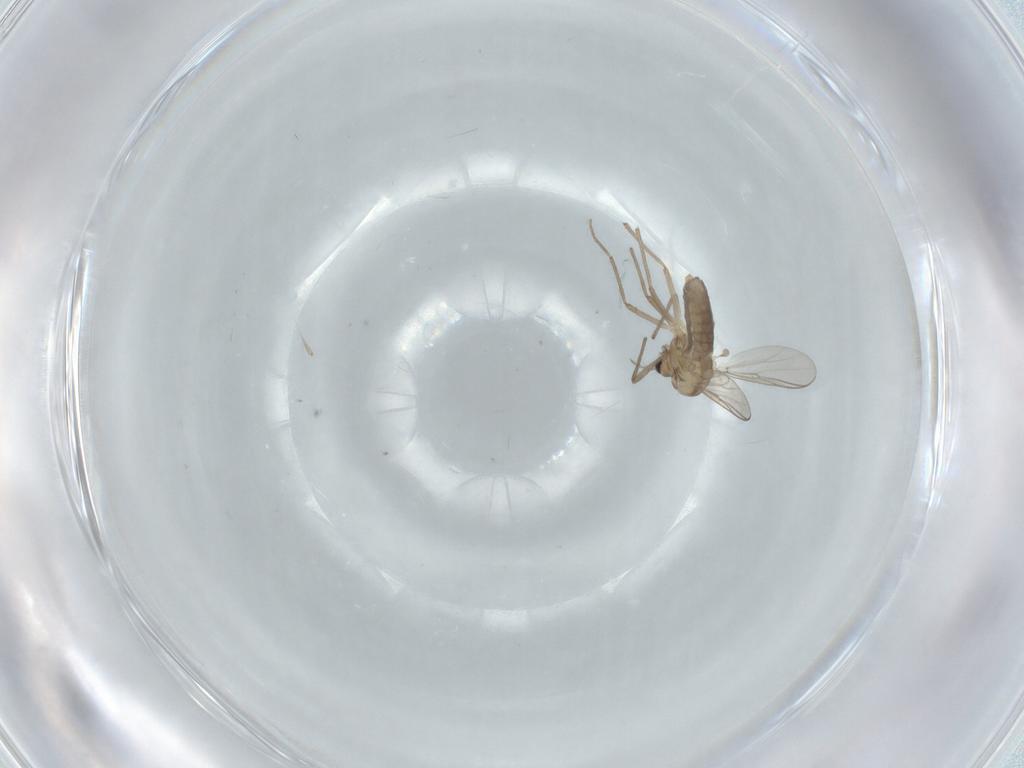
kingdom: Animalia
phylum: Arthropoda
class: Insecta
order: Diptera
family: Chironomidae
